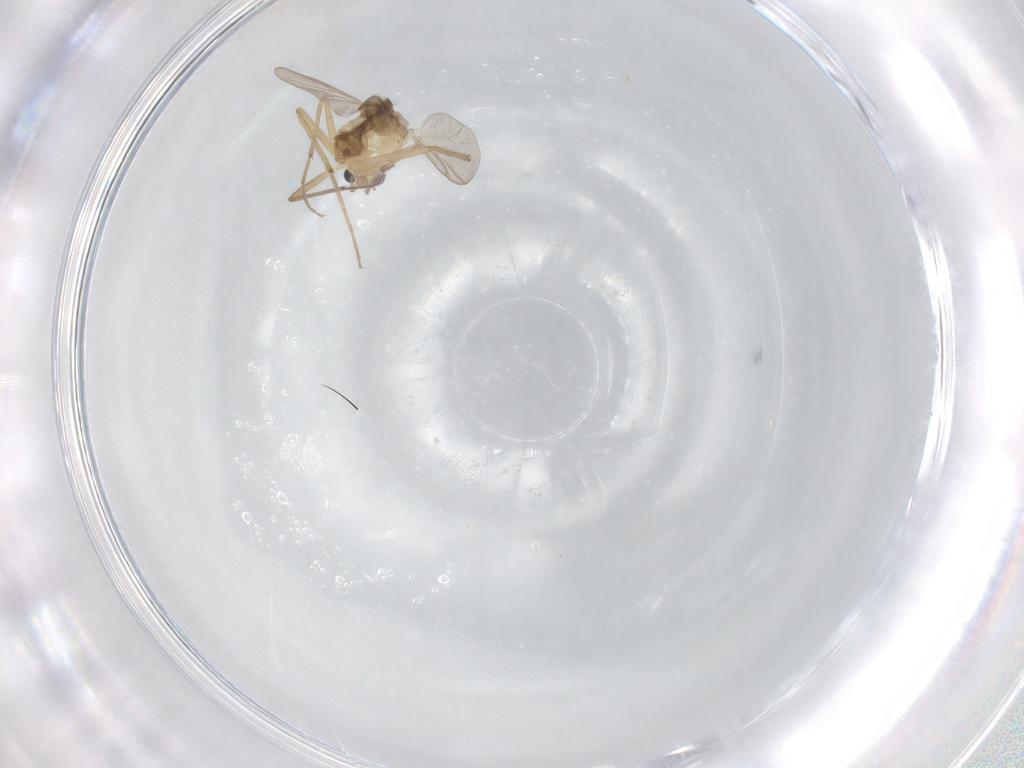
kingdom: Animalia
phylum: Arthropoda
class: Insecta
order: Diptera
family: Chironomidae
